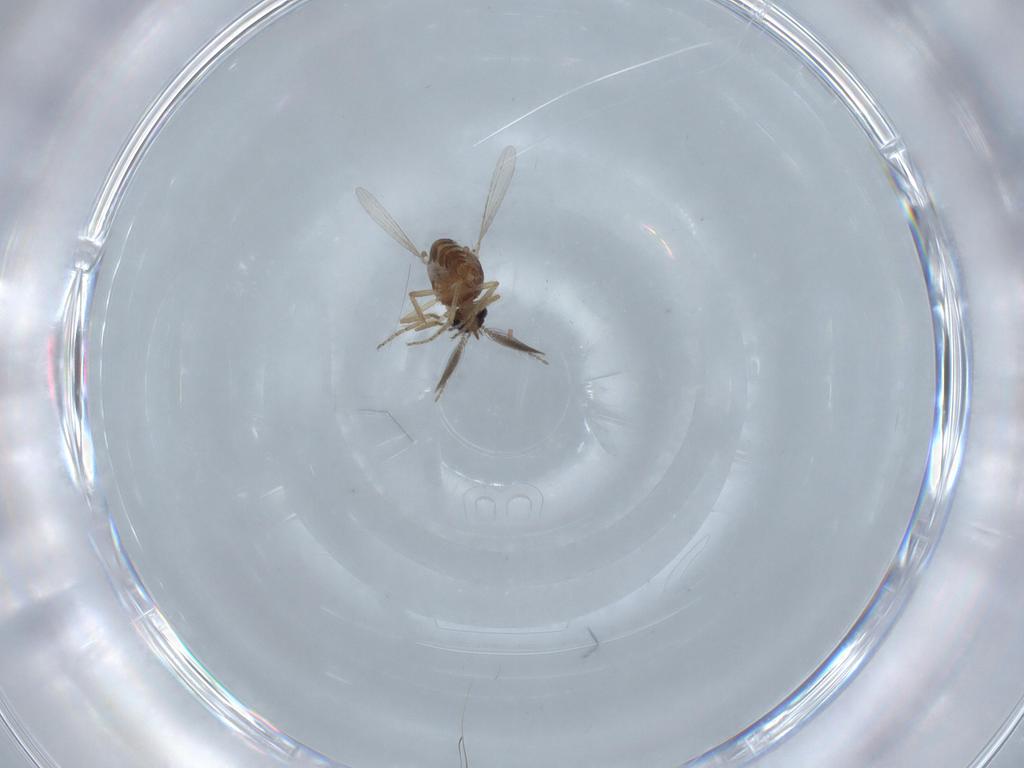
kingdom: Animalia
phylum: Arthropoda
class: Insecta
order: Diptera
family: Ceratopogonidae
